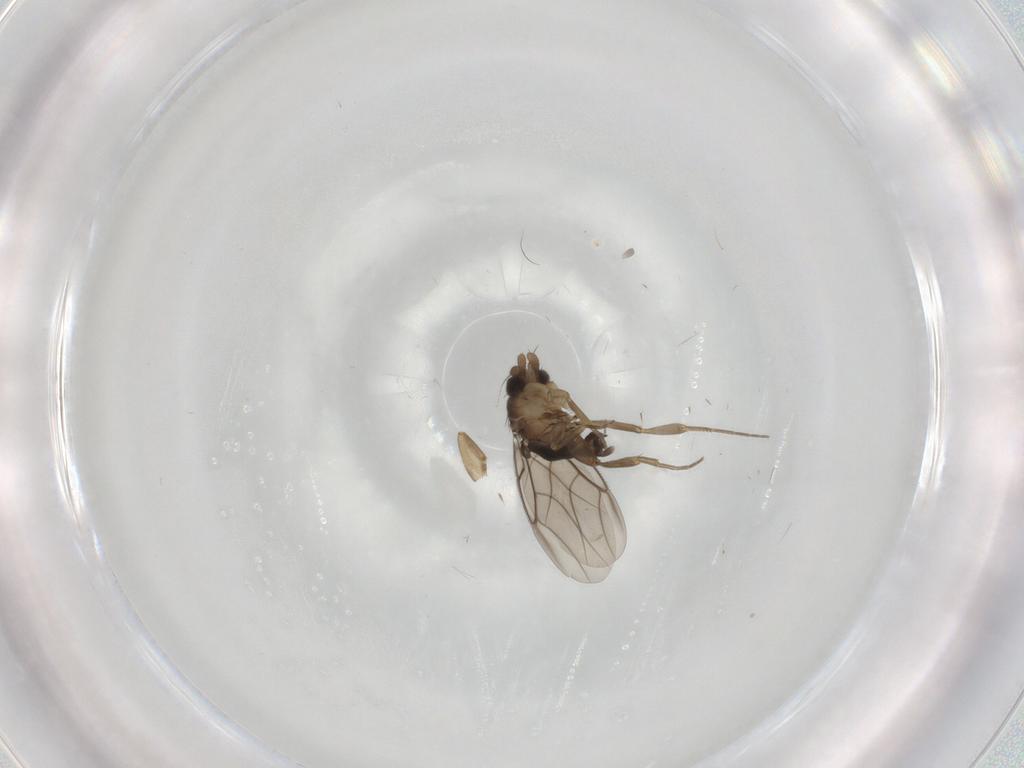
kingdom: Animalia
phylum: Arthropoda
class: Insecta
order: Diptera
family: Phoridae
